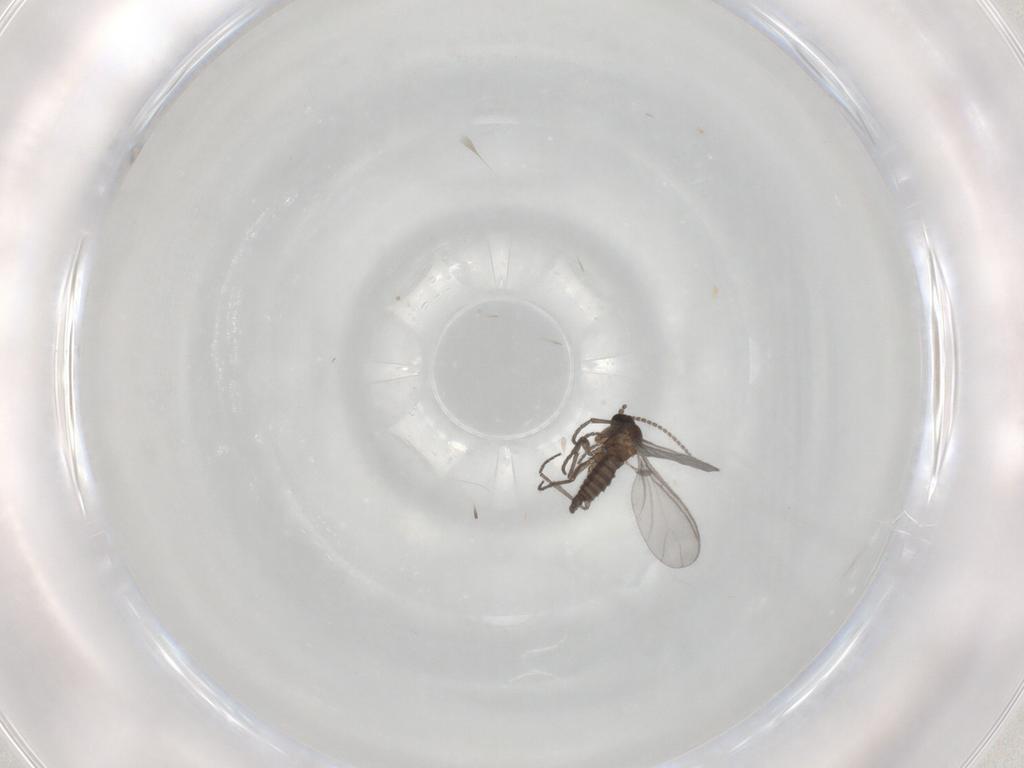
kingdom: Animalia
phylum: Arthropoda
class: Insecta
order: Diptera
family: Sciaridae
